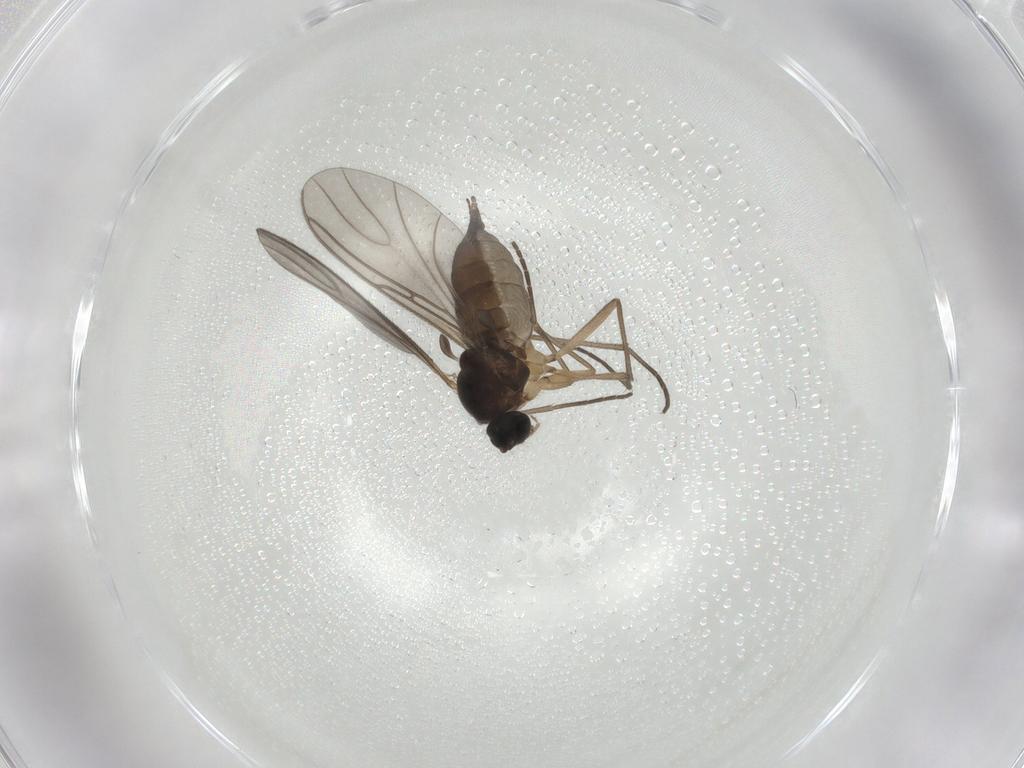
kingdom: Animalia
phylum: Arthropoda
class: Insecta
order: Diptera
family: Sciaridae
